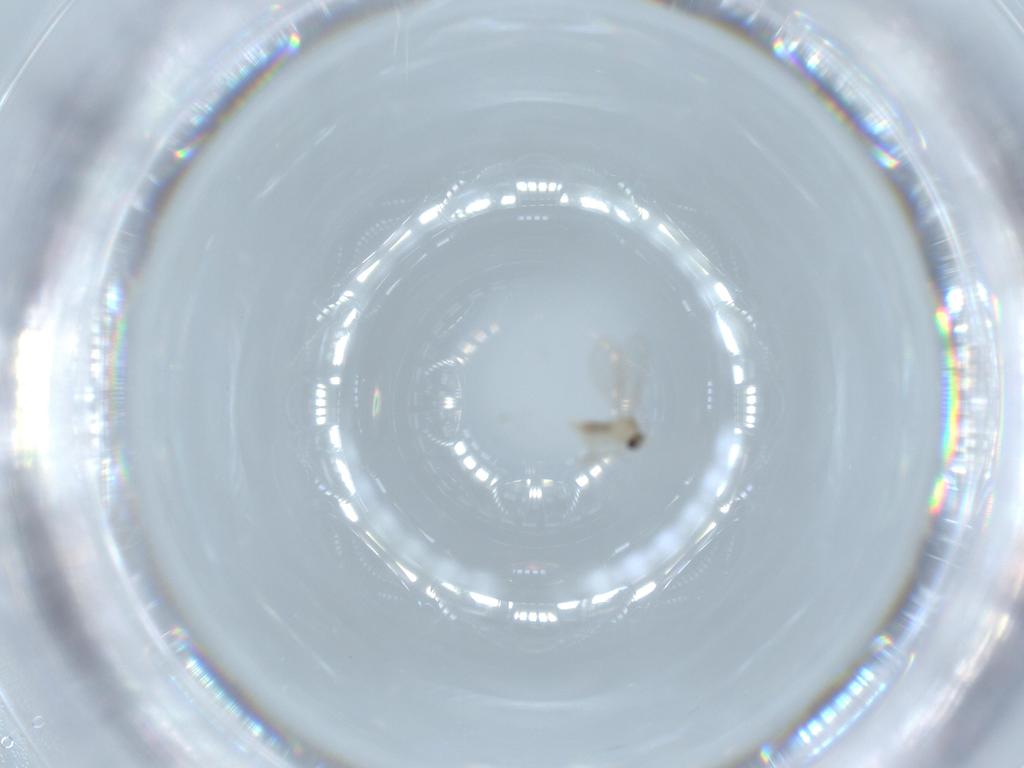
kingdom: Animalia
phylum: Arthropoda
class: Insecta
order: Diptera
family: Cecidomyiidae
